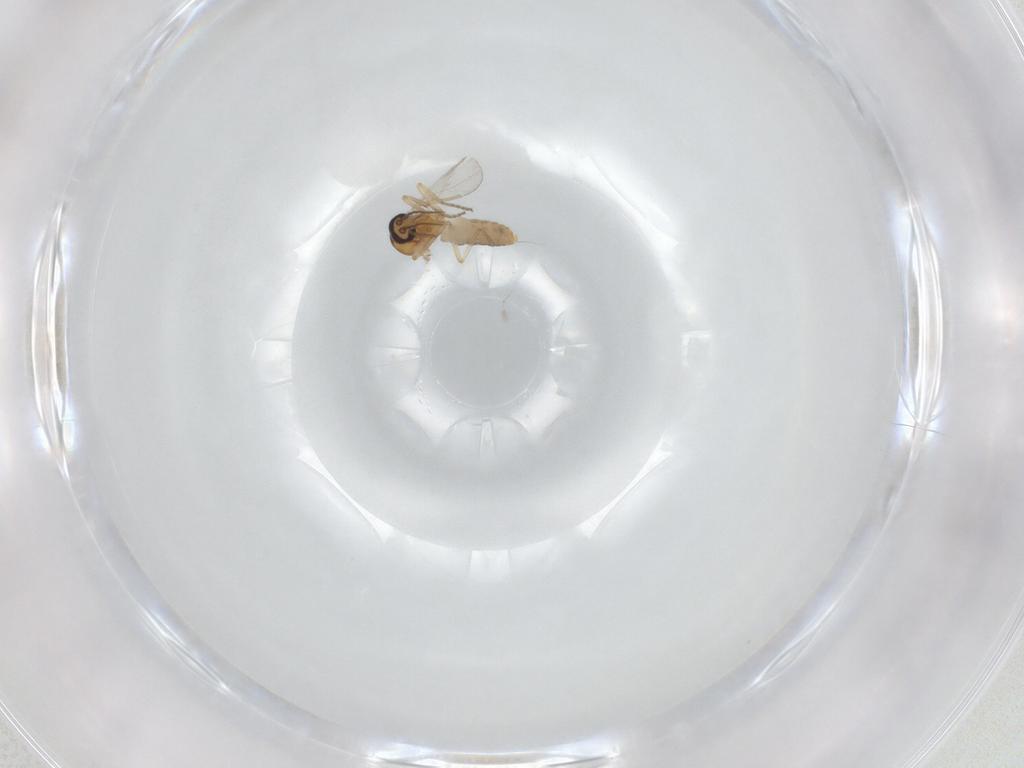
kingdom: Animalia
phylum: Arthropoda
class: Insecta
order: Diptera
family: Ceratopogonidae
